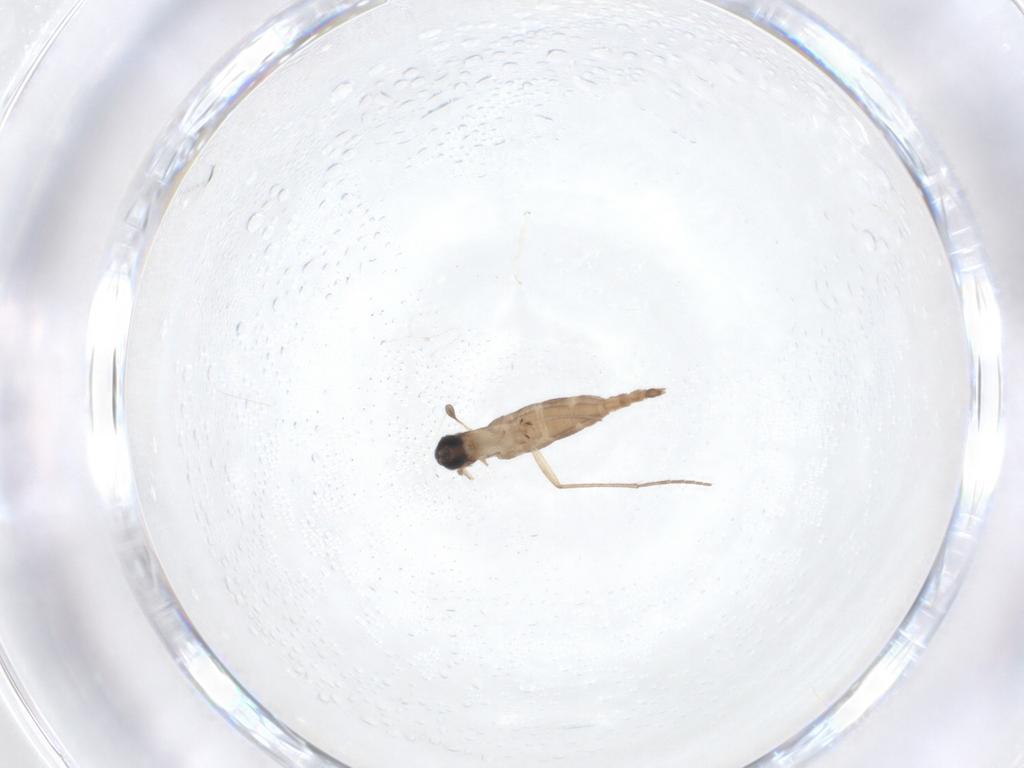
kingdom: Animalia
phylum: Arthropoda
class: Insecta
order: Diptera
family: Sciaridae
